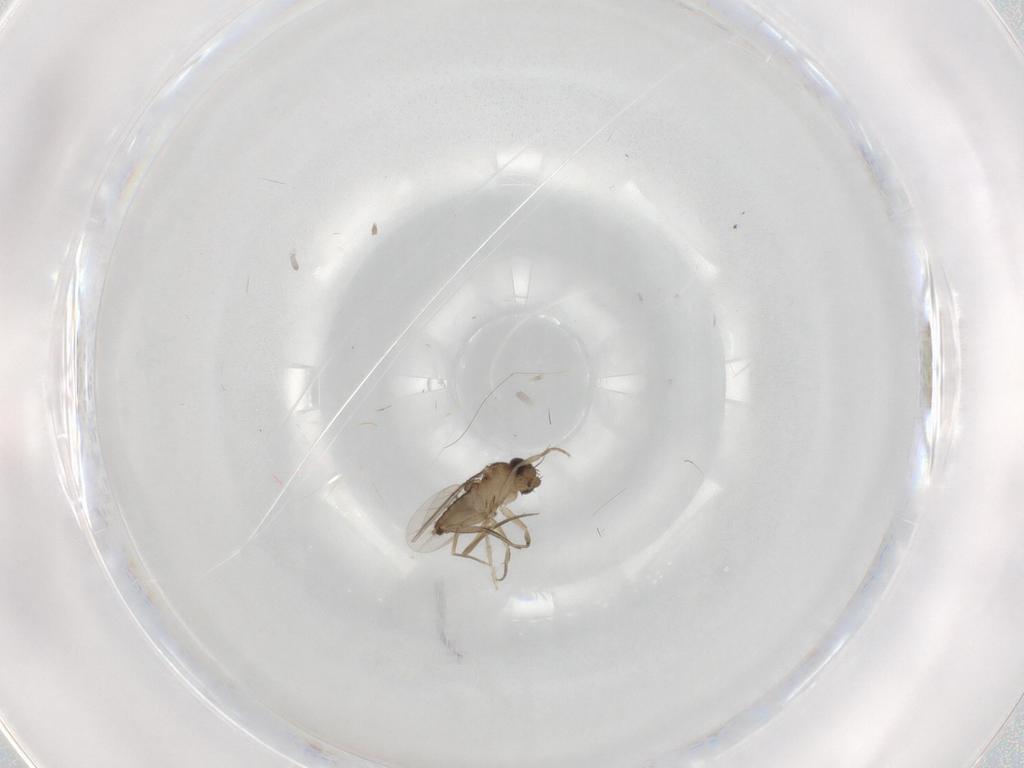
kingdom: Animalia
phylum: Arthropoda
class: Insecta
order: Diptera
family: Phoridae
